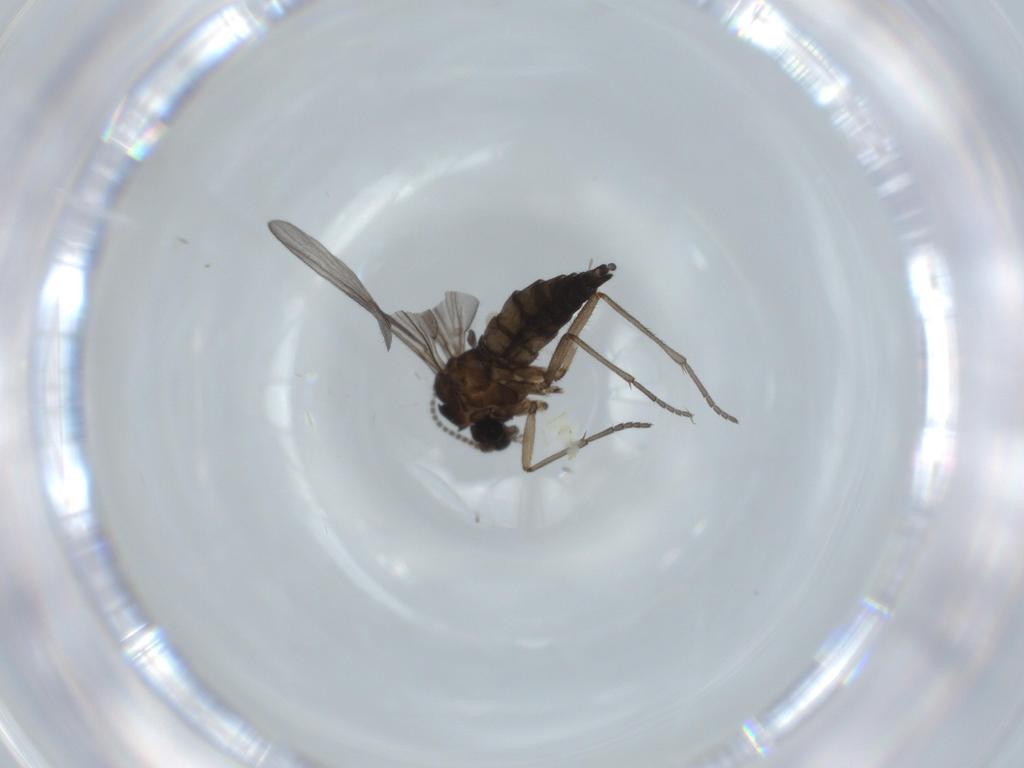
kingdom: Animalia
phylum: Arthropoda
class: Insecta
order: Diptera
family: Sciaridae
